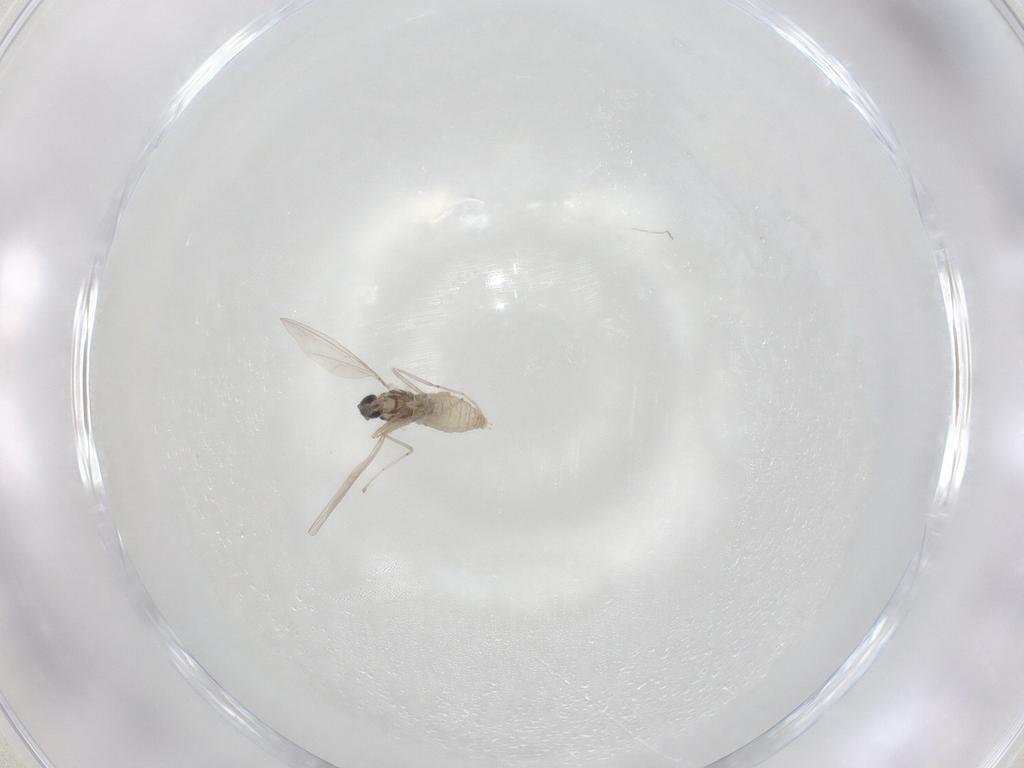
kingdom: Animalia
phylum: Arthropoda
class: Insecta
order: Diptera
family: Cecidomyiidae
